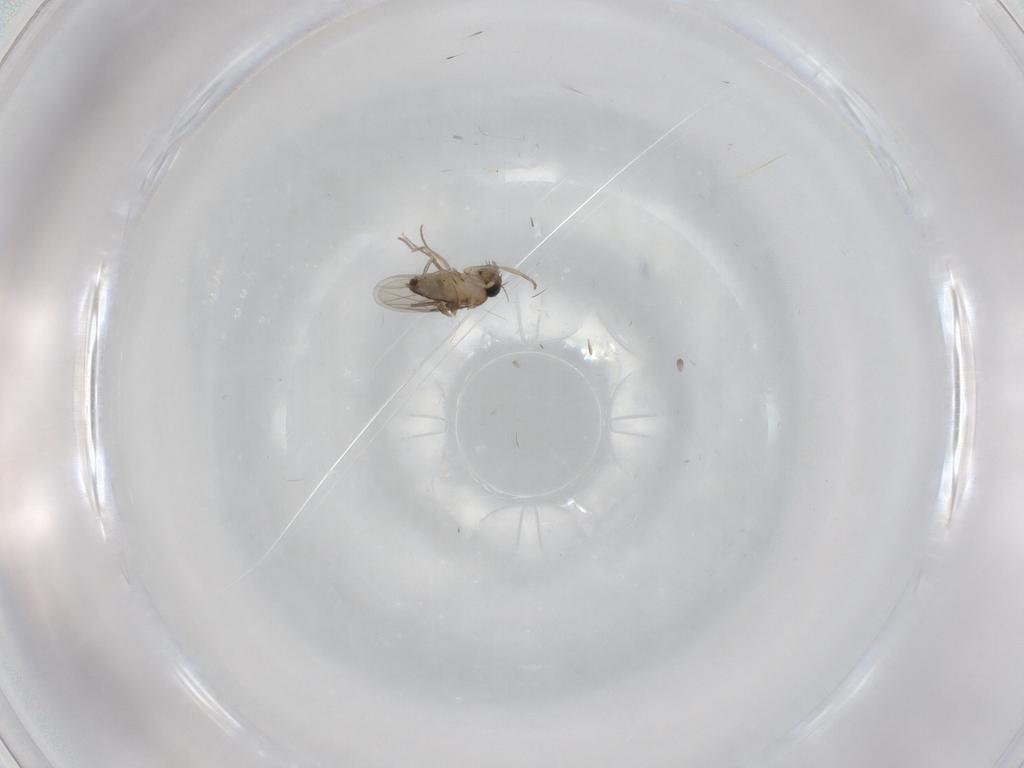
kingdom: Animalia
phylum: Arthropoda
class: Insecta
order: Diptera
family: Phoridae
